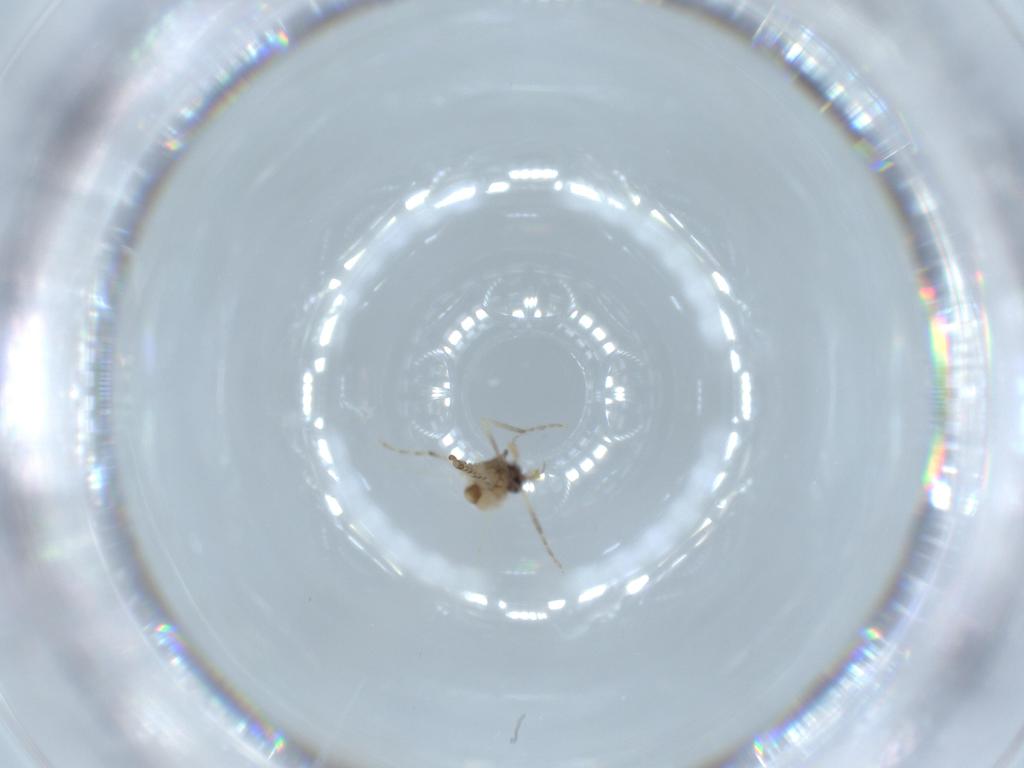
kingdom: Animalia
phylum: Arthropoda
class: Insecta
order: Diptera
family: Ceratopogonidae
